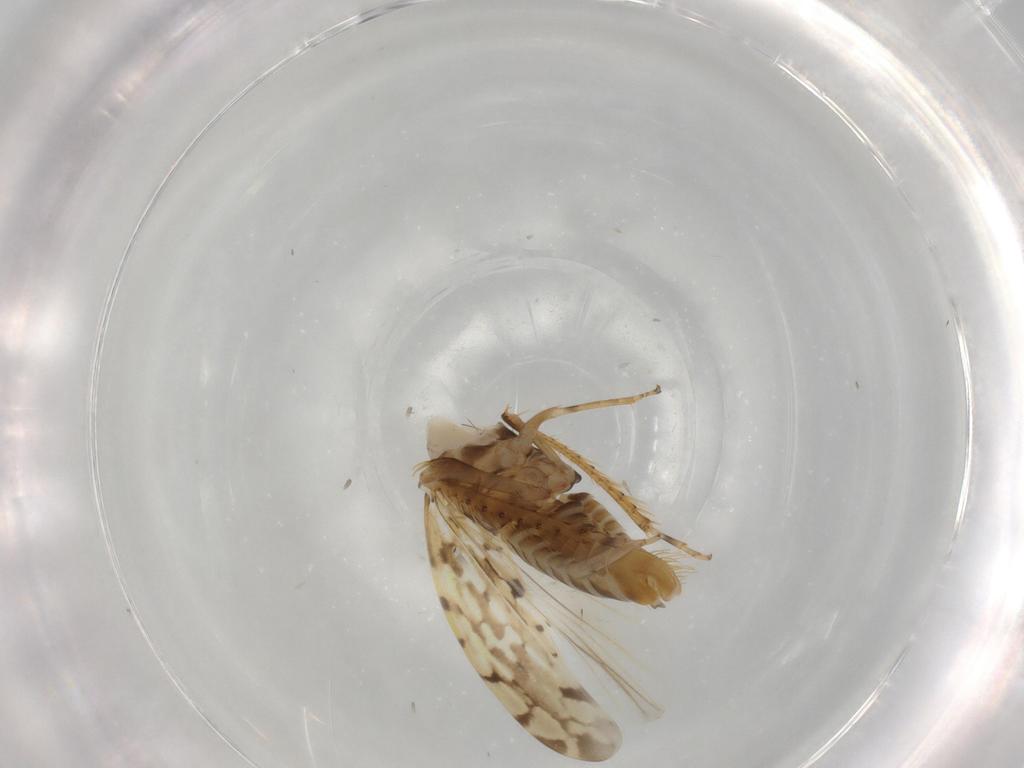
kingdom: Animalia
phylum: Arthropoda
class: Insecta
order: Hemiptera
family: Cicadellidae
